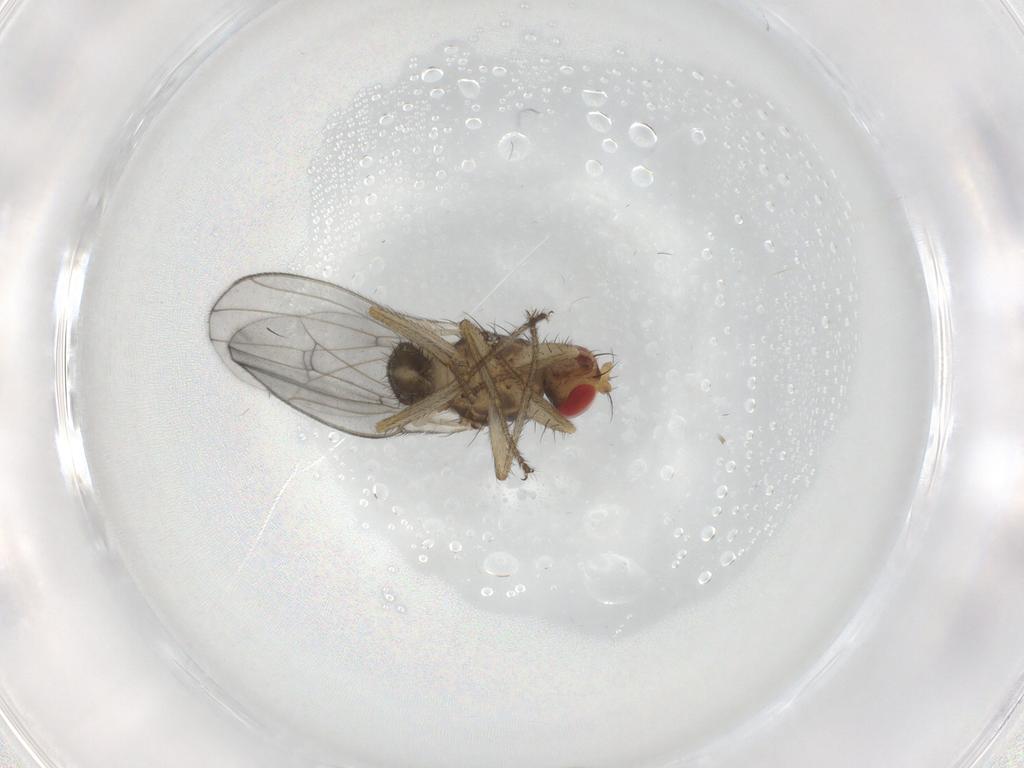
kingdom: Animalia
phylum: Arthropoda
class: Insecta
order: Diptera
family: Drosophilidae
